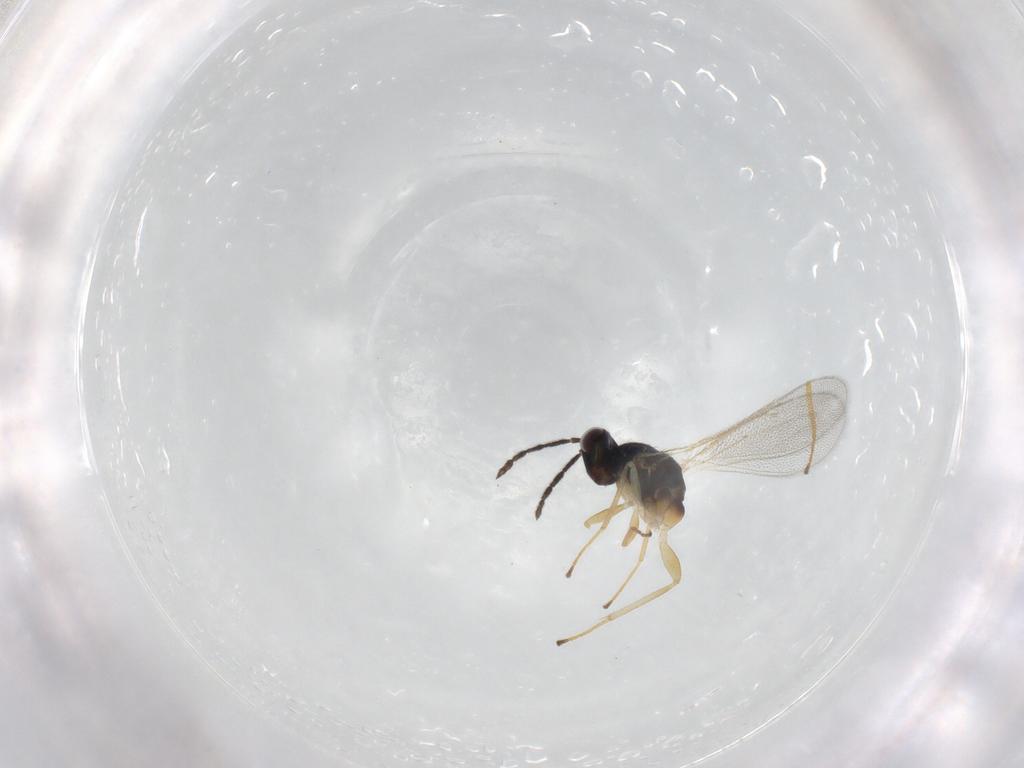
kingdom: Animalia
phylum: Arthropoda
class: Insecta
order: Hymenoptera
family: Eulophidae
